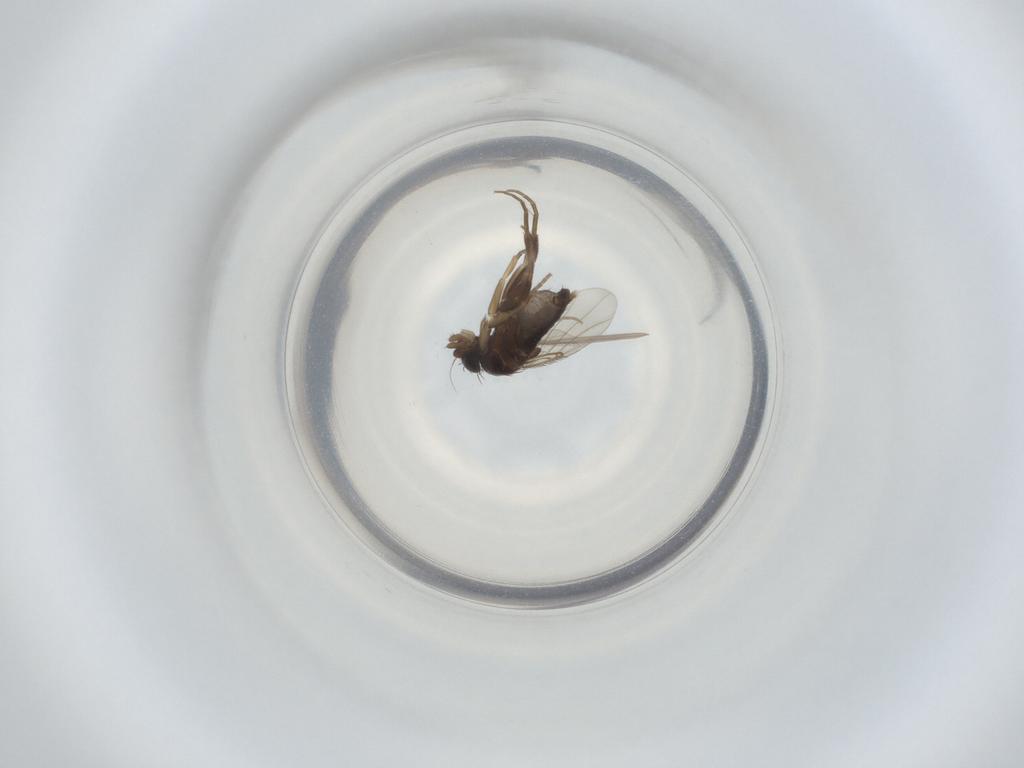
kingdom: Animalia
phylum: Arthropoda
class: Insecta
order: Diptera
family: Phoridae
